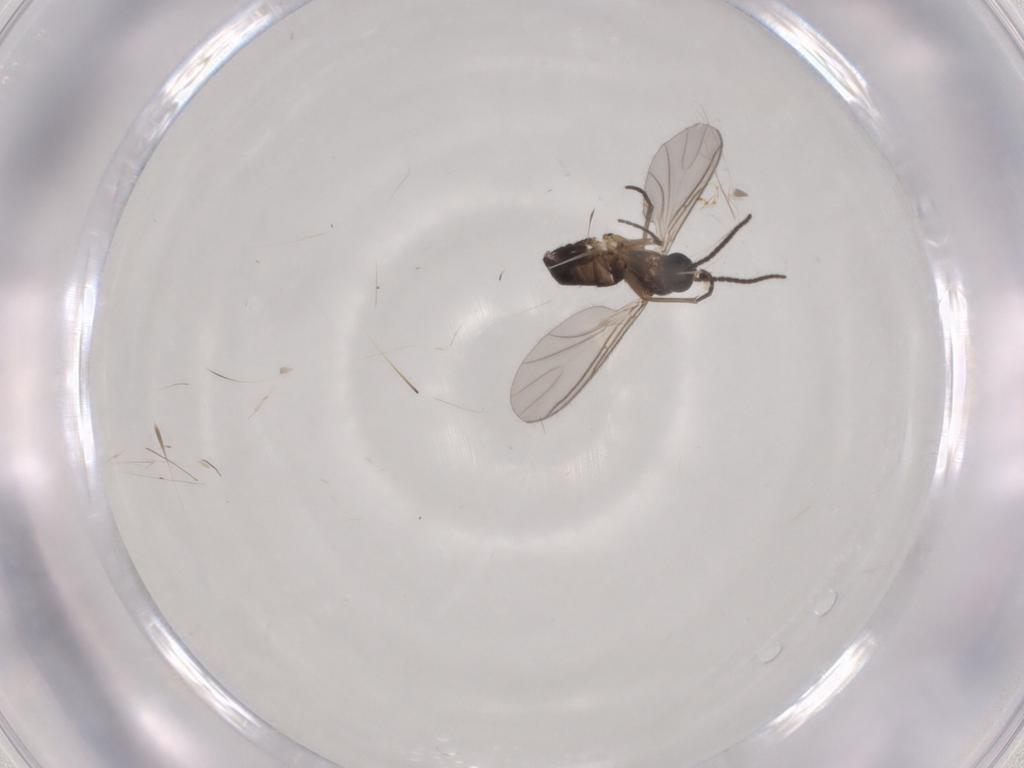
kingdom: Animalia
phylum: Arthropoda
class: Insecta
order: Diptera
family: Sciaridae
